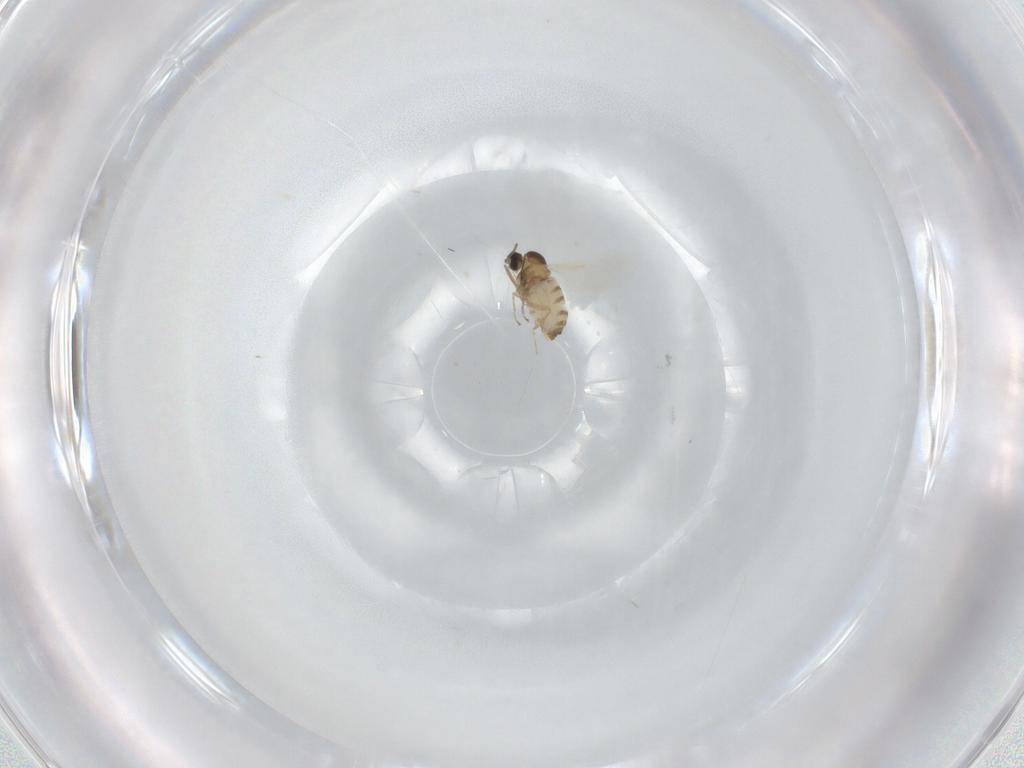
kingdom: Animalia
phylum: Arthropoda
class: Insecta
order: Diptera
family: Cecidomyiidae
